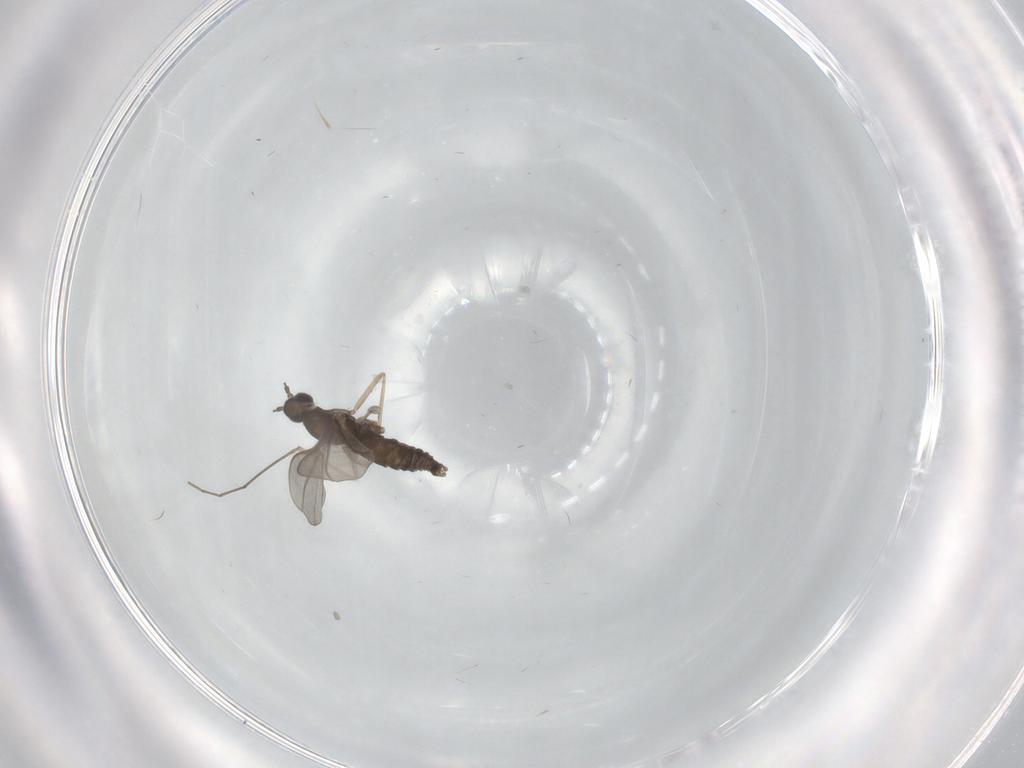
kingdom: Animalia
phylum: Arthropoda
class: Insecta
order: Diptera
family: Cecidomyiidae
